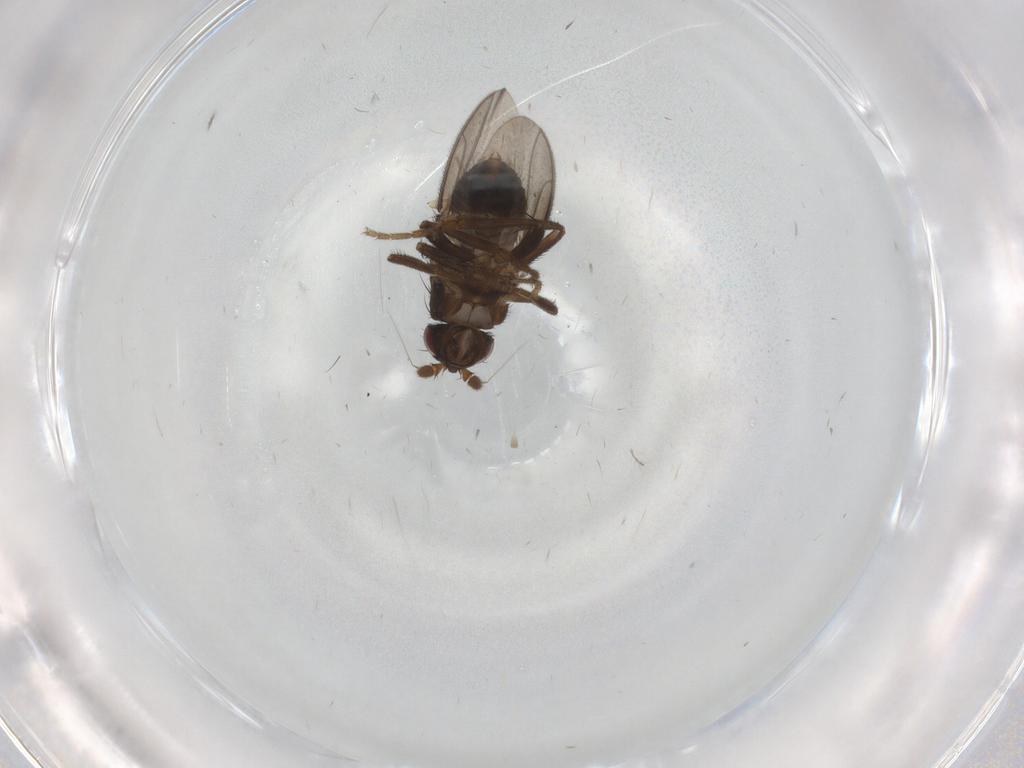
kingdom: Animalia
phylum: Arthropoda
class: Insecta
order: Diptera
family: Sphaeroceridae
